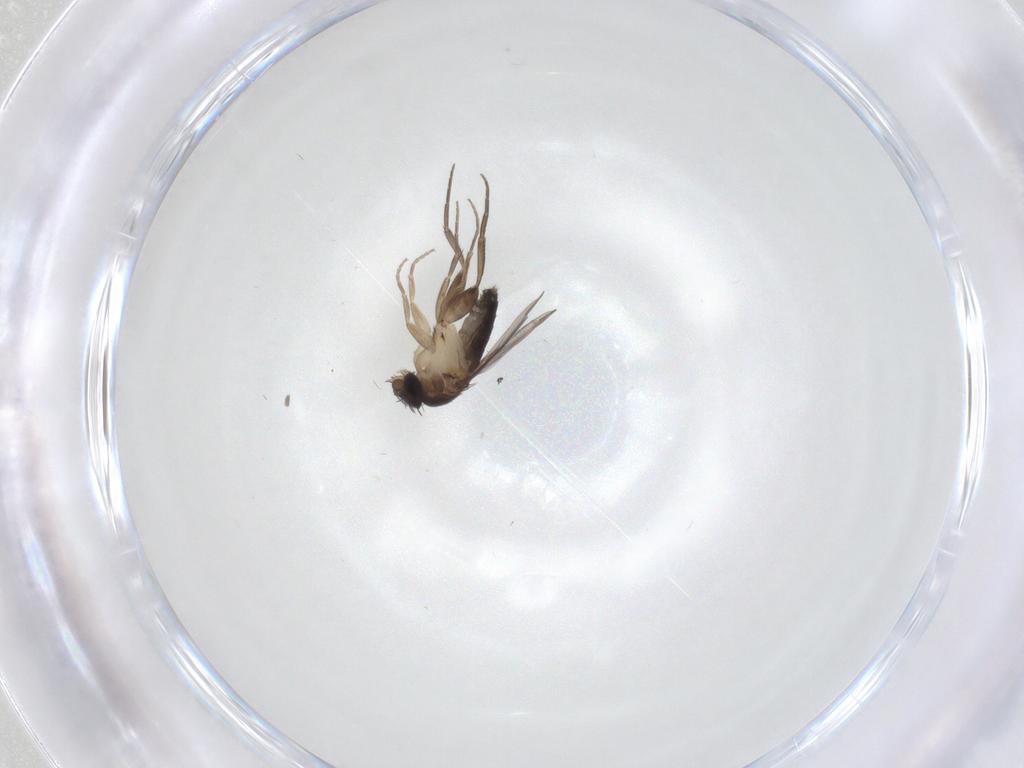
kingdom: Animalia
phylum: Arthropoda
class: Insecta
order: Diptera
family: Phoridae
